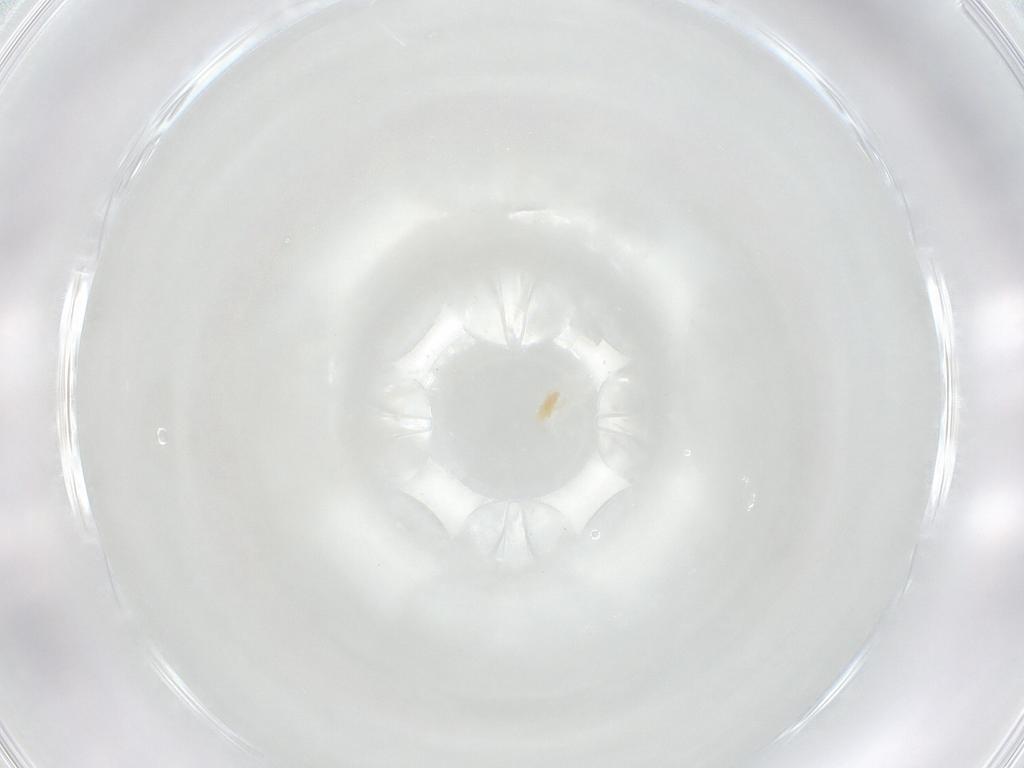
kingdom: Animalia
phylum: Arthropoda
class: Arachnida
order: Trombidiformes
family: Eupodidae
